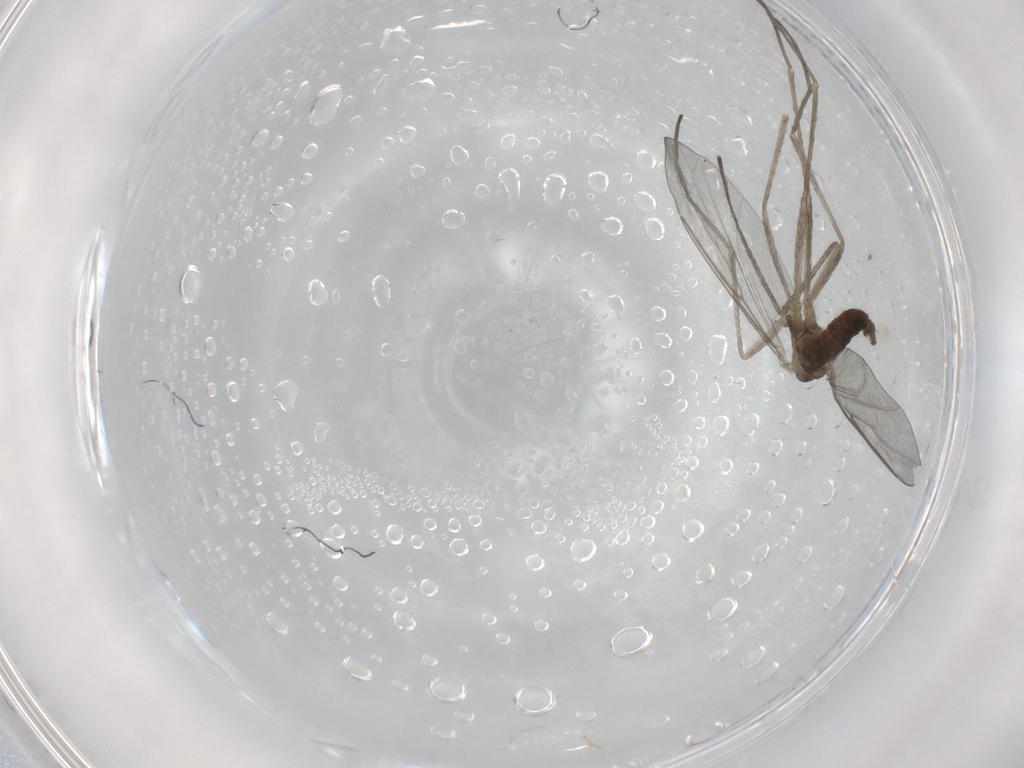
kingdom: Animalia
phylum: Arthropoda
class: Insecta
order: Diptera
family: Cecidomyiidae
